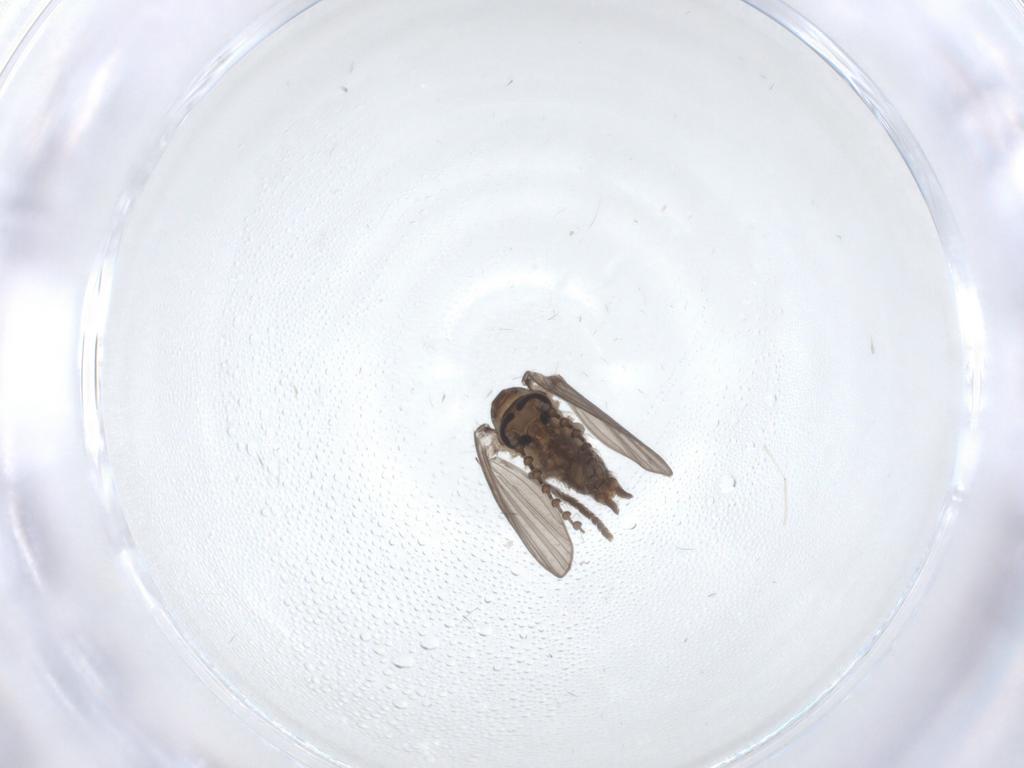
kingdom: Animalia
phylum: Arthropoda
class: Insecta
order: Diptera
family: Psychodidae
